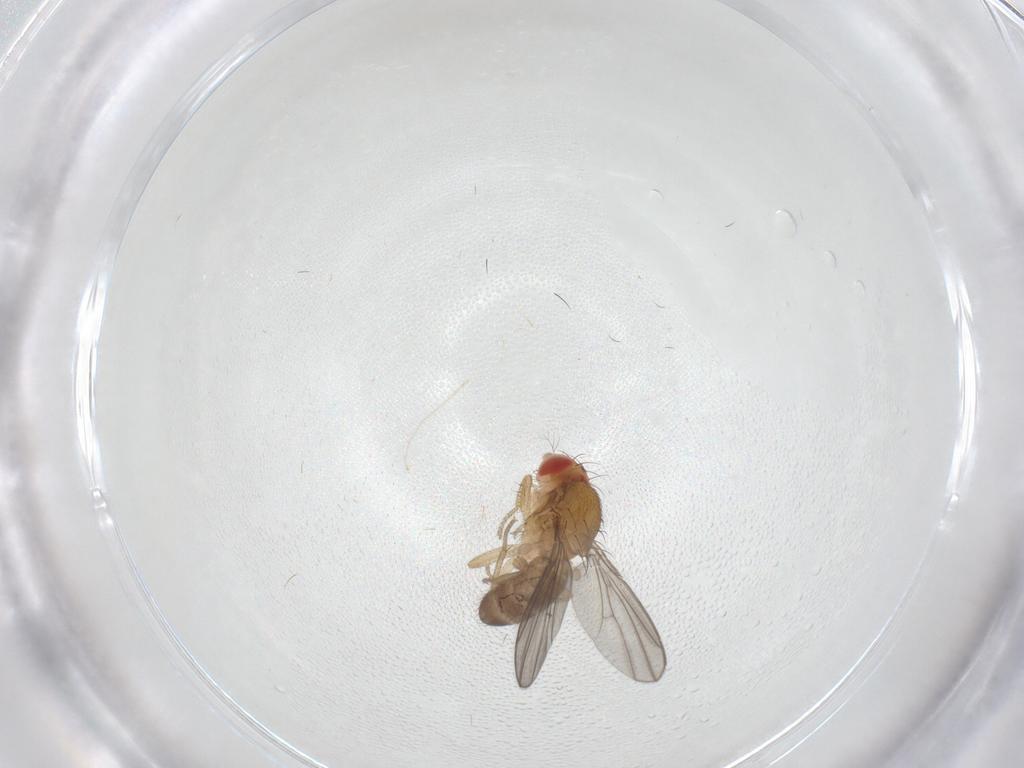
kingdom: Animalia
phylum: Arthropoda
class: Insecta
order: Diptera
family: Drosophilidae
